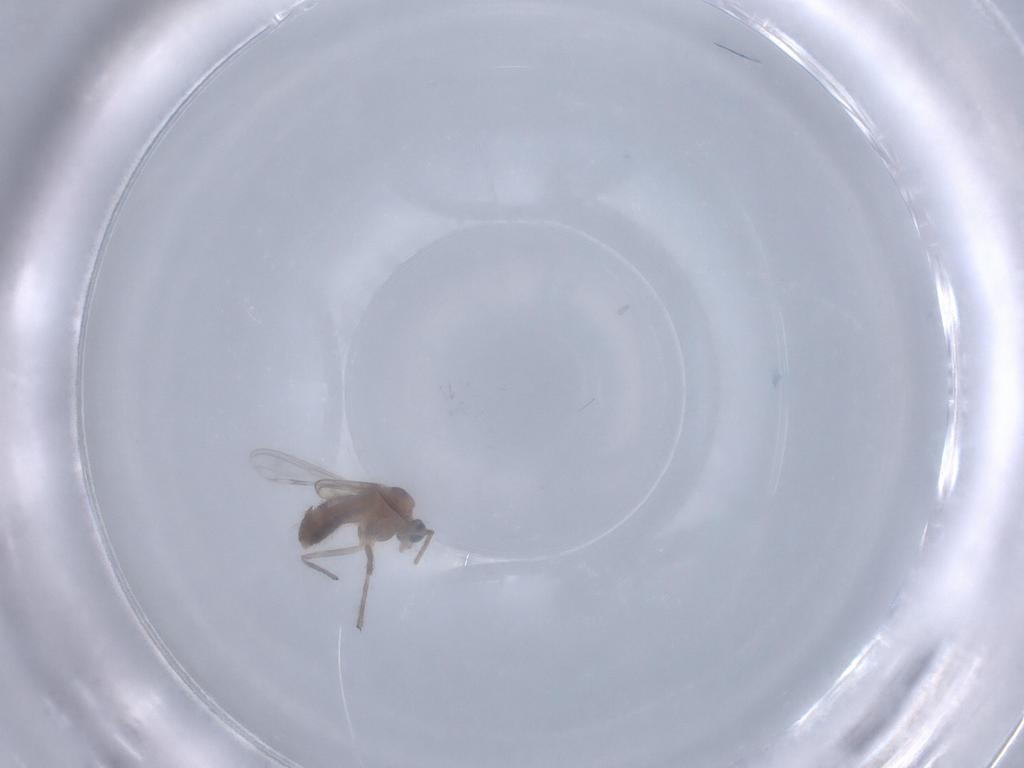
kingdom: Animalia
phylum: Arthropoda
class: Insecta
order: Diptera
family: Chironomidae
